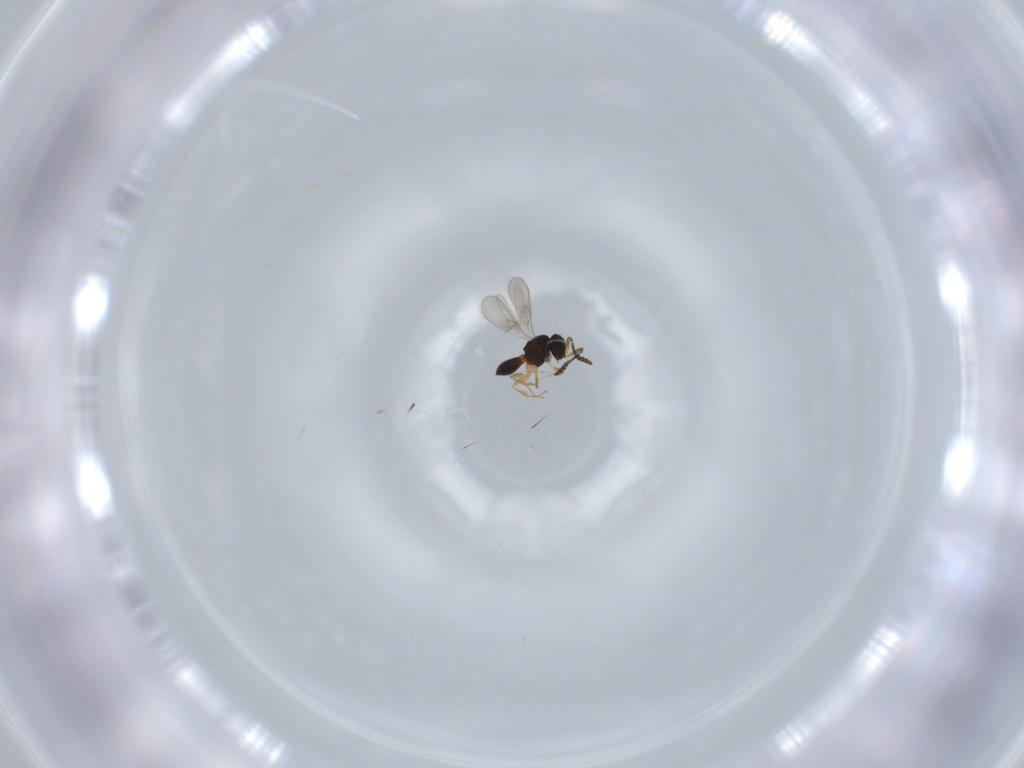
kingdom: Animalia
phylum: Arthropoda
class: Insecta
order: Hymenoptera
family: Scelionidae
